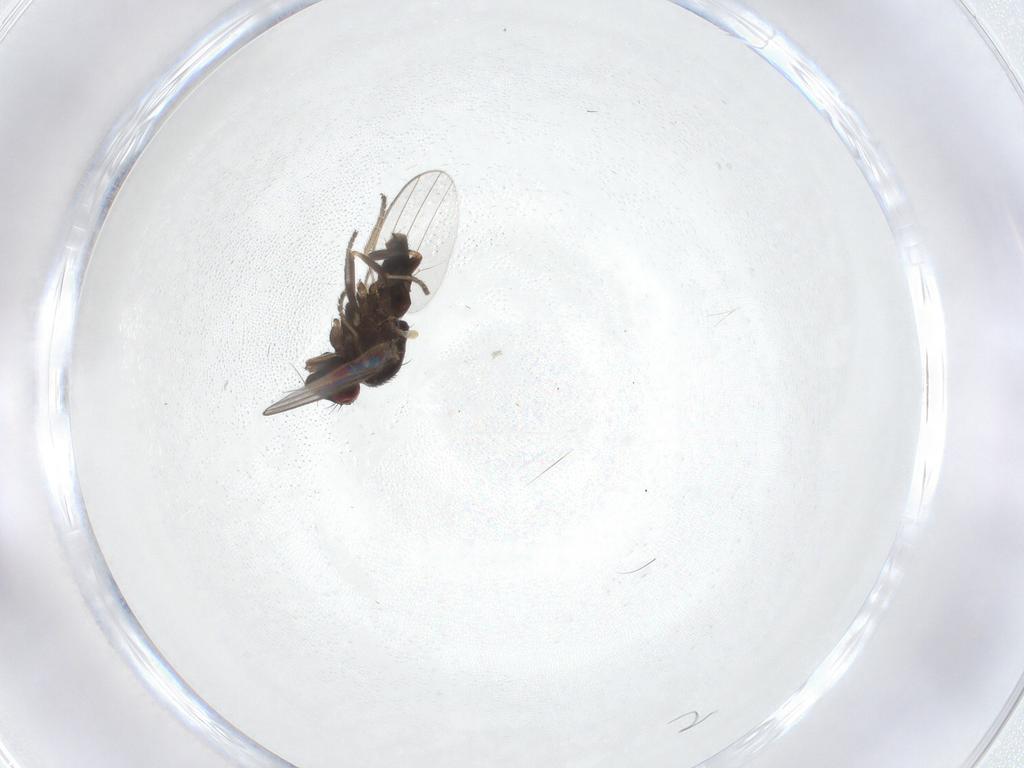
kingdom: Animalia
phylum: Arthropoda
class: Insecta
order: Diptera
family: Milichiidae
